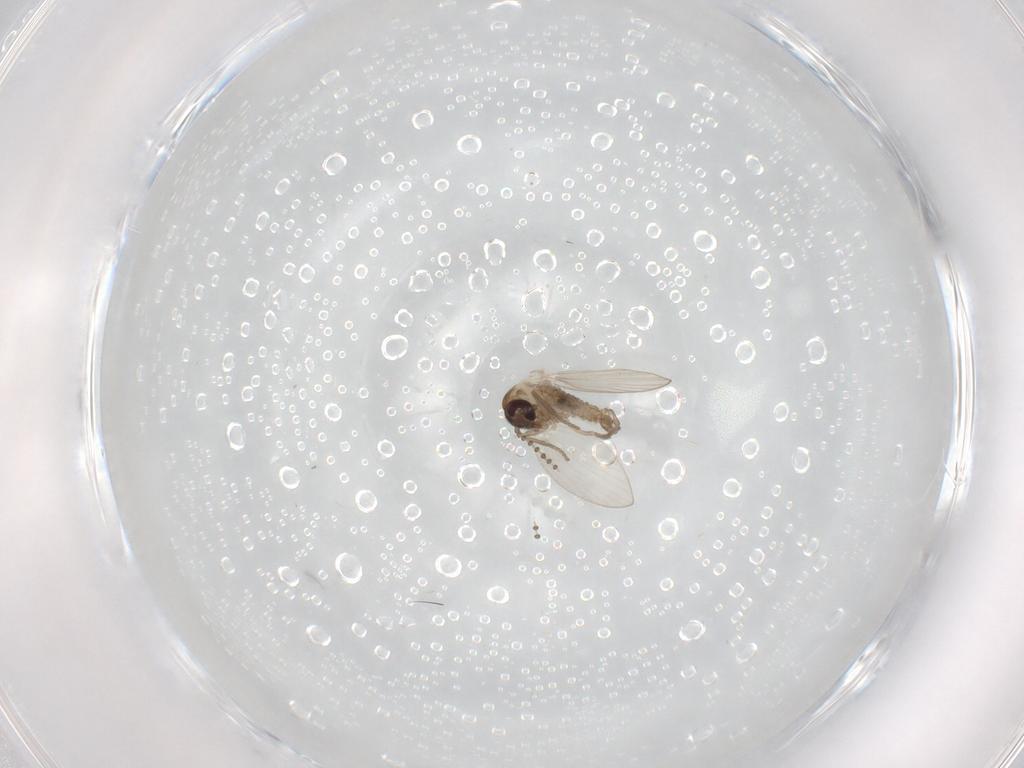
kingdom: Animalia
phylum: Arthropoda
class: Insecta
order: Diptera
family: Psychodidae
